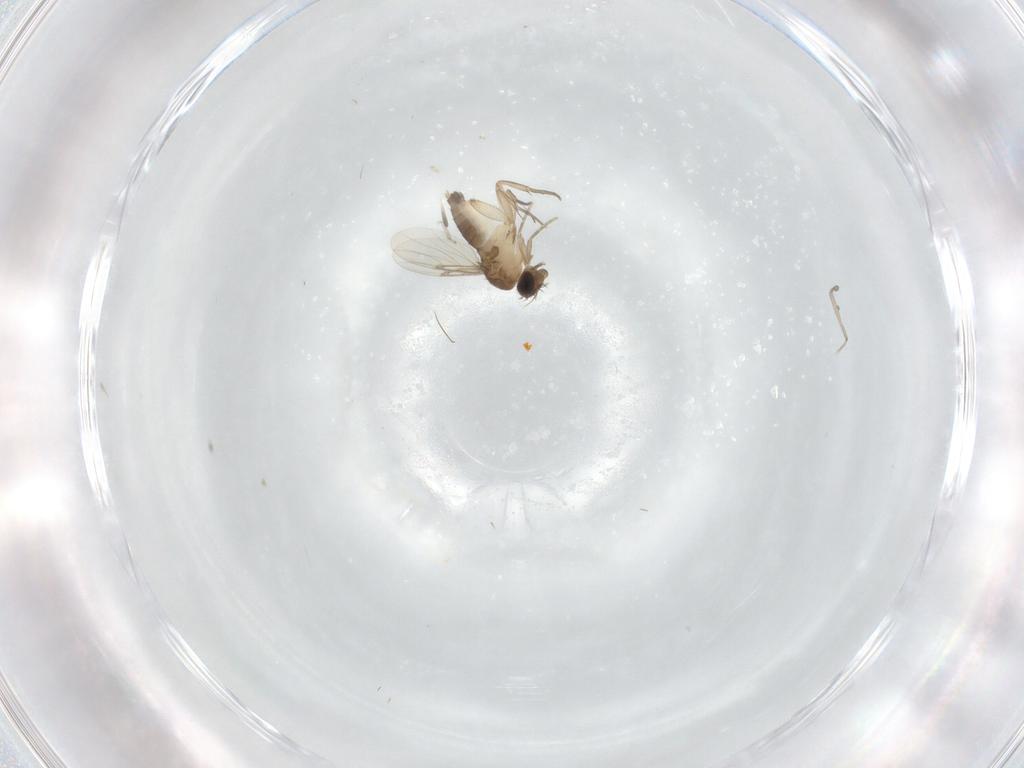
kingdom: Animalia
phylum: Arthropoda
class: Insecta
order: Diptera
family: Phoridae
